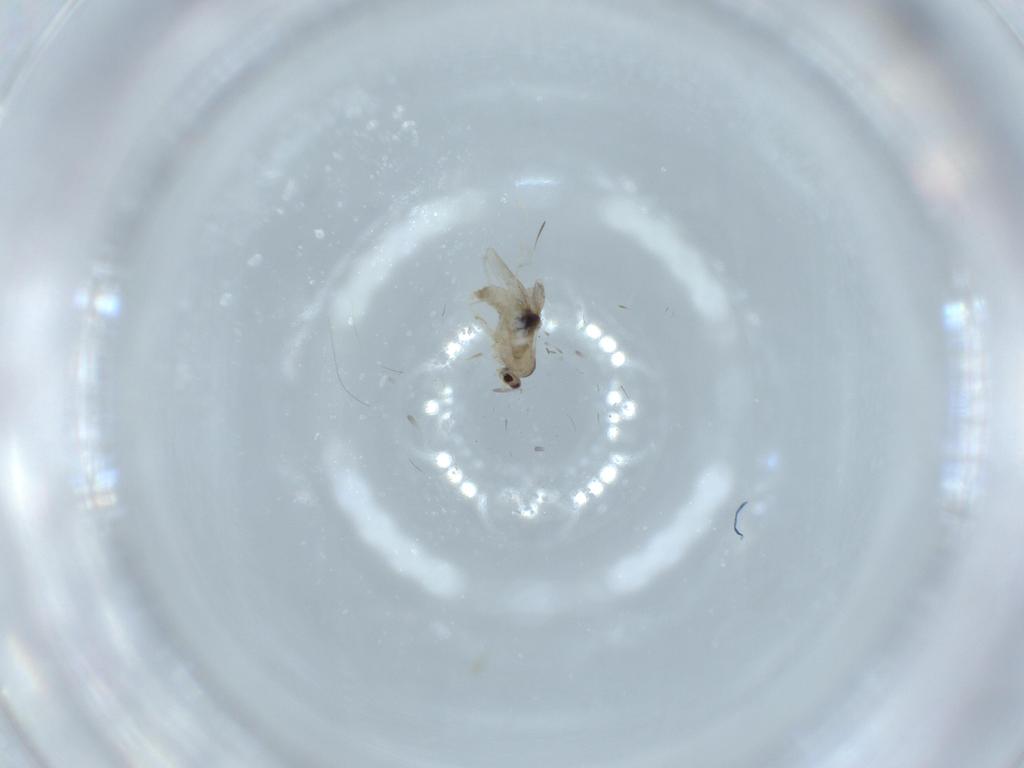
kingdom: Animalia
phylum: Arthropoda
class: Insecta
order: Diptera
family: Cecidomyiidae
